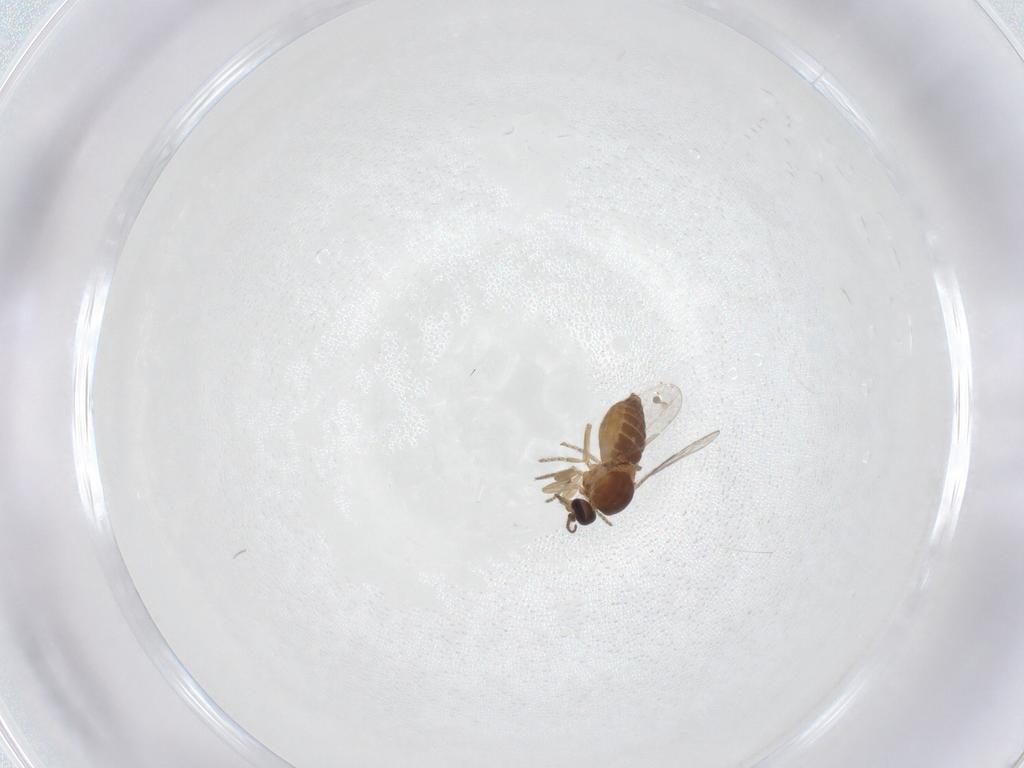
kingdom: Animalia
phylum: Arthropoda
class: Insecta
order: Diptera
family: Ceratopogonidae
